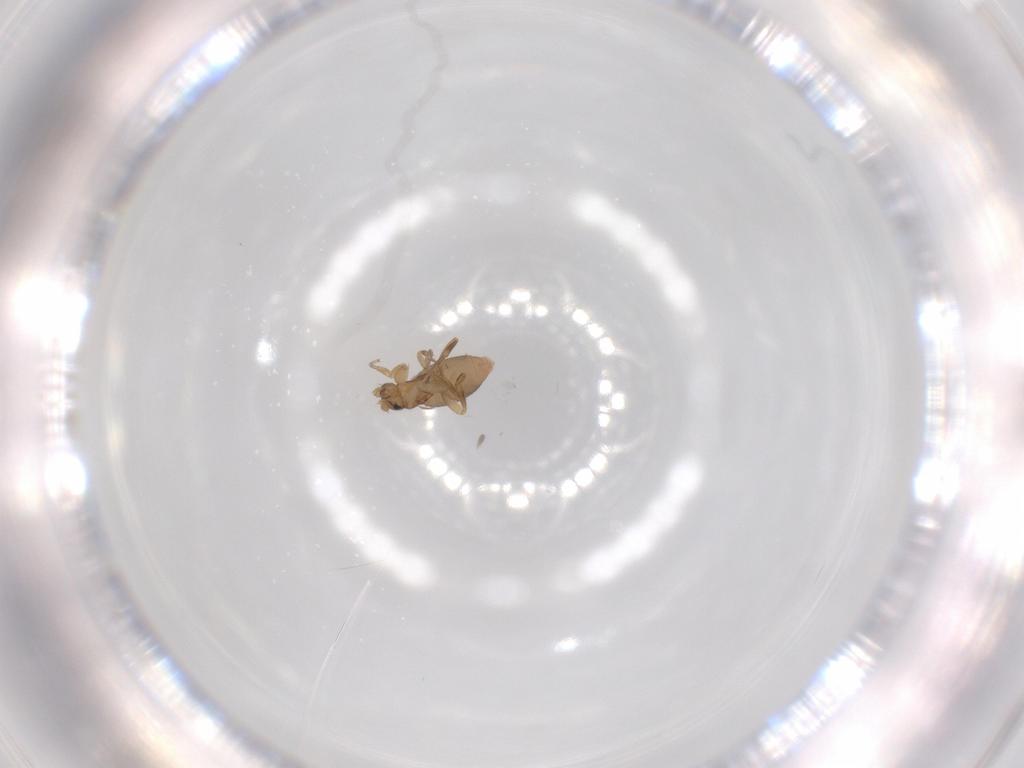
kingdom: Animalia
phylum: Arthropoda
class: Insecta
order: Diptera
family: Phoridae
